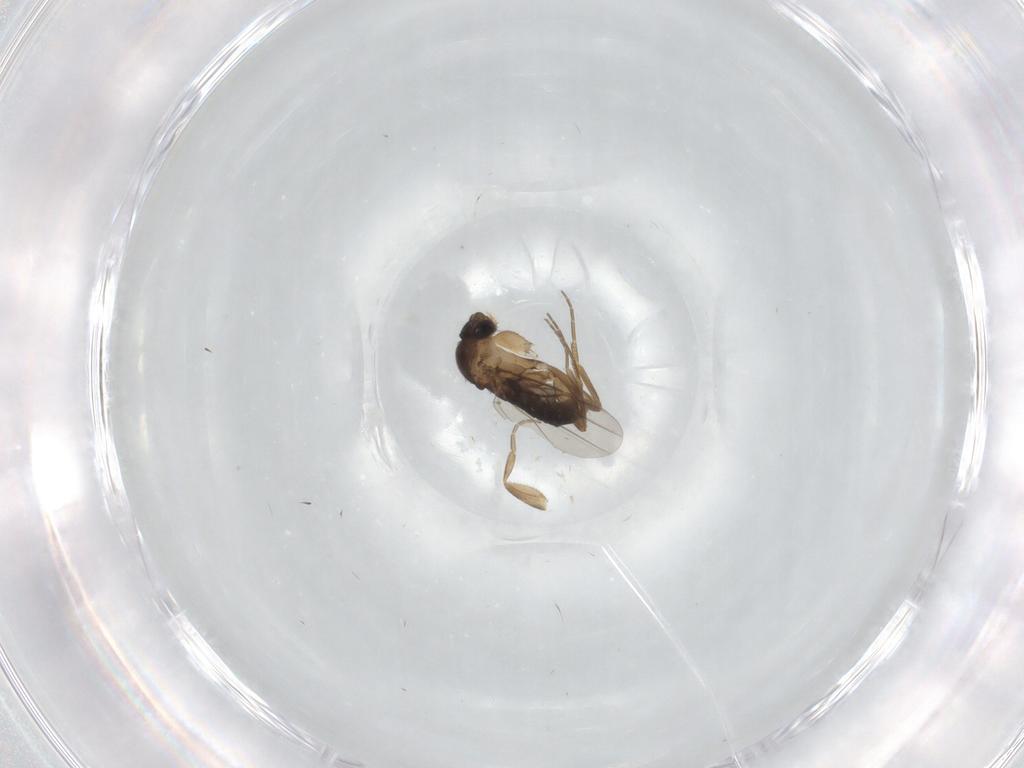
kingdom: Animalia
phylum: Arthropoda
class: Insecta
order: Diptera
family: Phoridae
